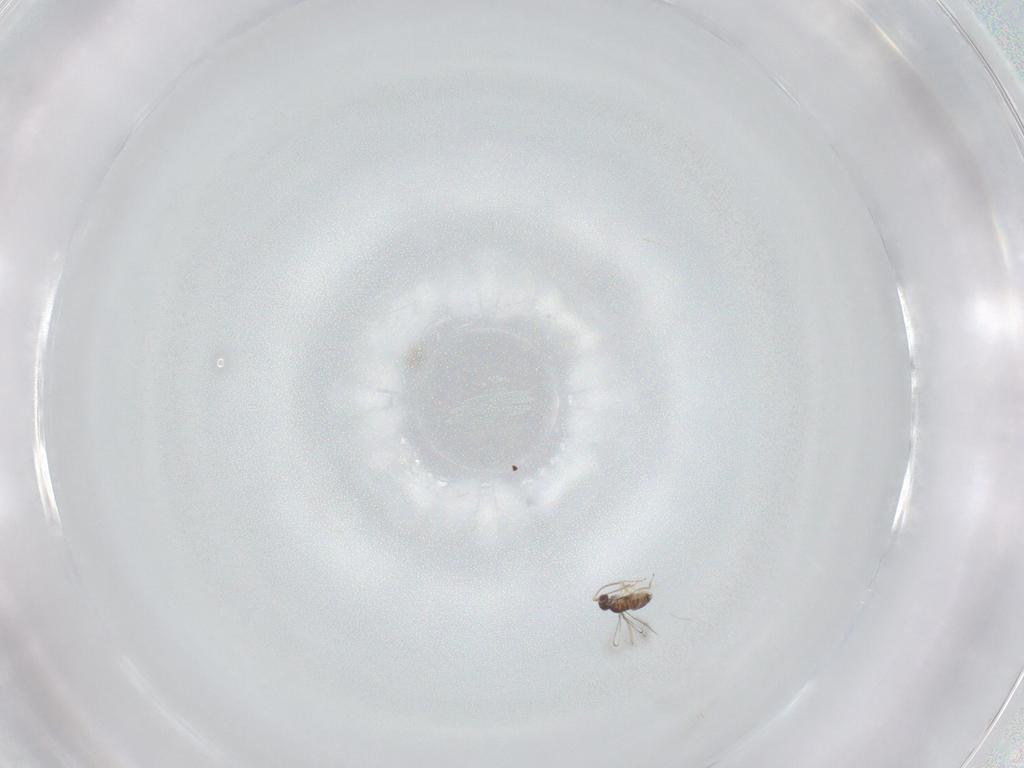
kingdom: Animalia
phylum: Arthropoda
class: Insecta
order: Hymenoptera
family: Scelionidae
